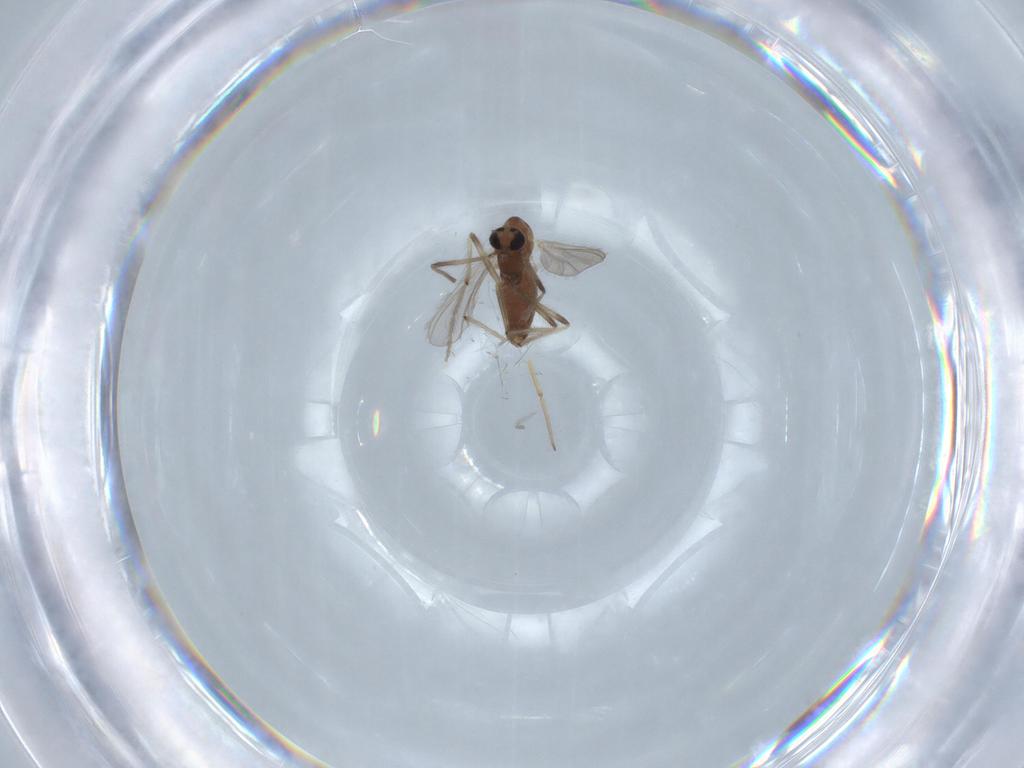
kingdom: Animalia
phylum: Arthropoda
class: Insecta
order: Diptera
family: Chironomidae
